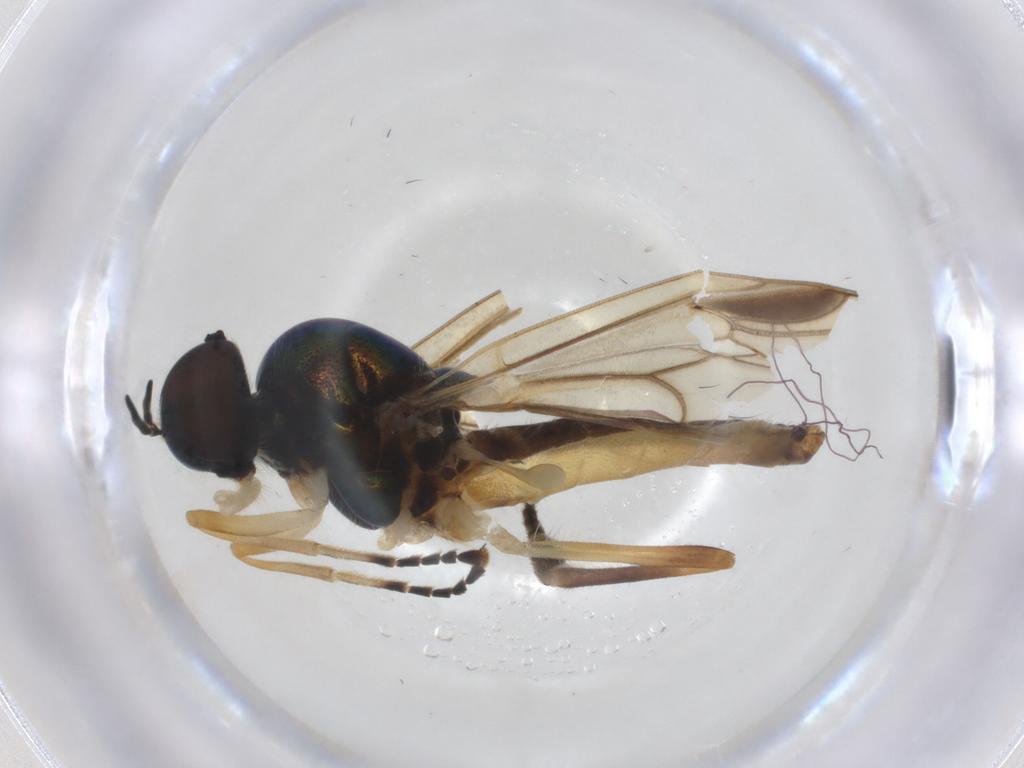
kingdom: Animalia
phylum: Arthropoda
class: Insecta
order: Diptera
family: Stratiomyidae
